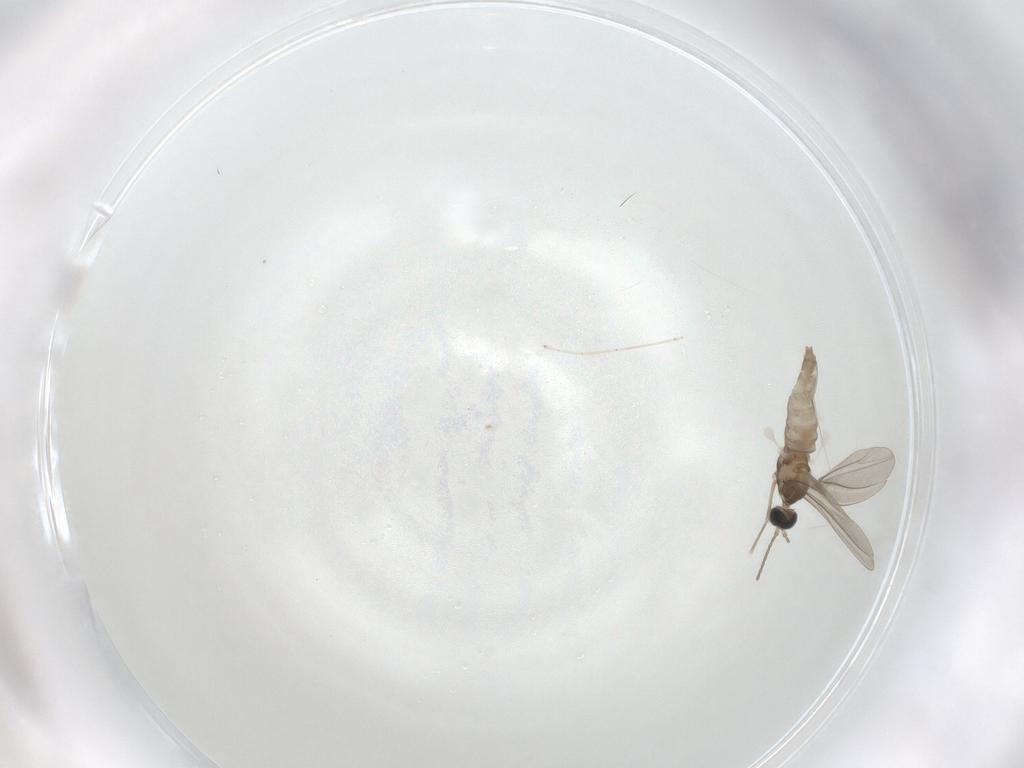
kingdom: Animalia
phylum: Arthropoda
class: Insecta
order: Diptera
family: Cecidomyiidae
